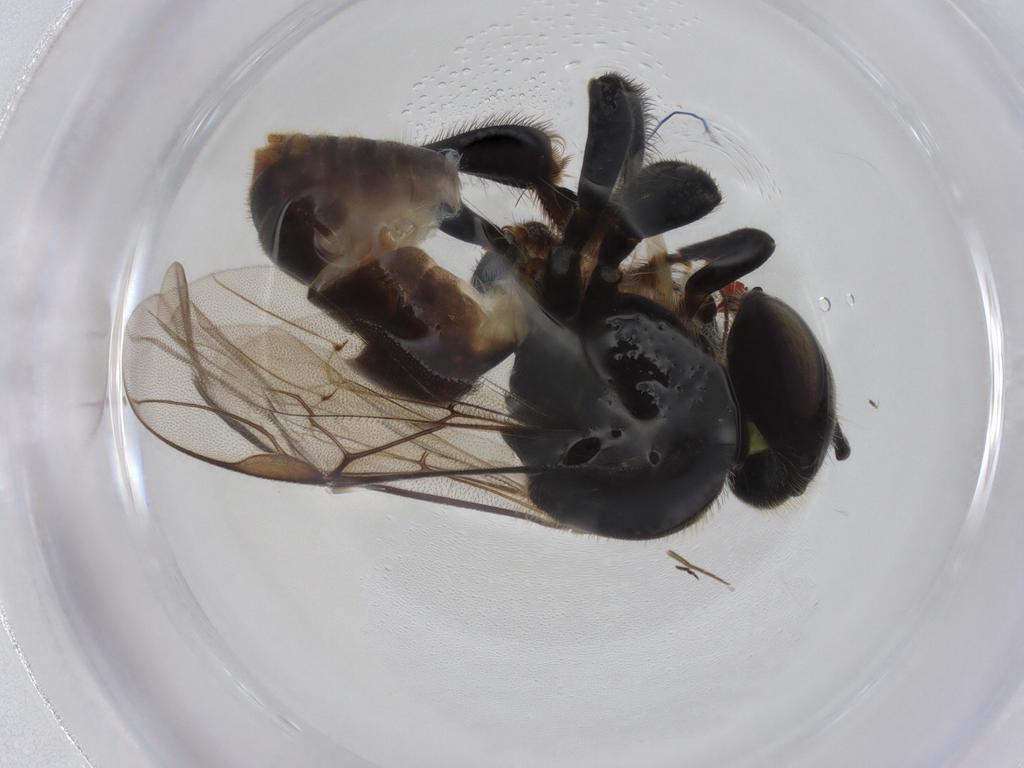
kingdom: Animalia
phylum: Arthropoda
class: Insecta
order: Hymenoptera
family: Apidae
